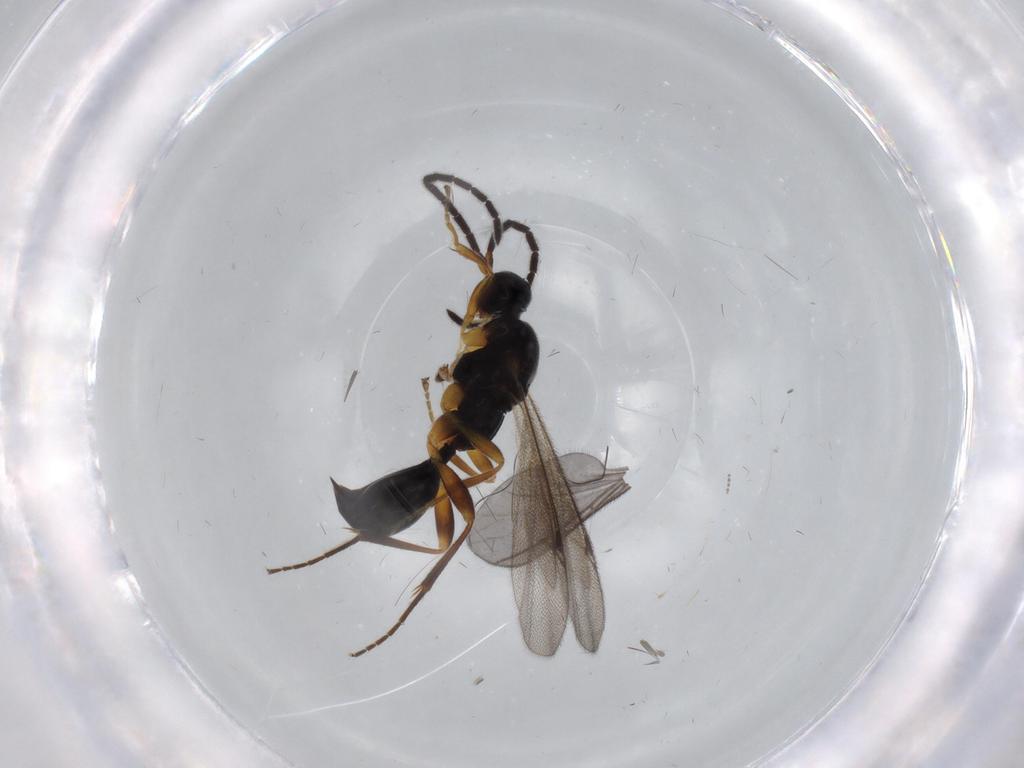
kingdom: Animalia
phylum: Arthropoda
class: Insecta
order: Hymenoptera
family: Proctotrupidae
